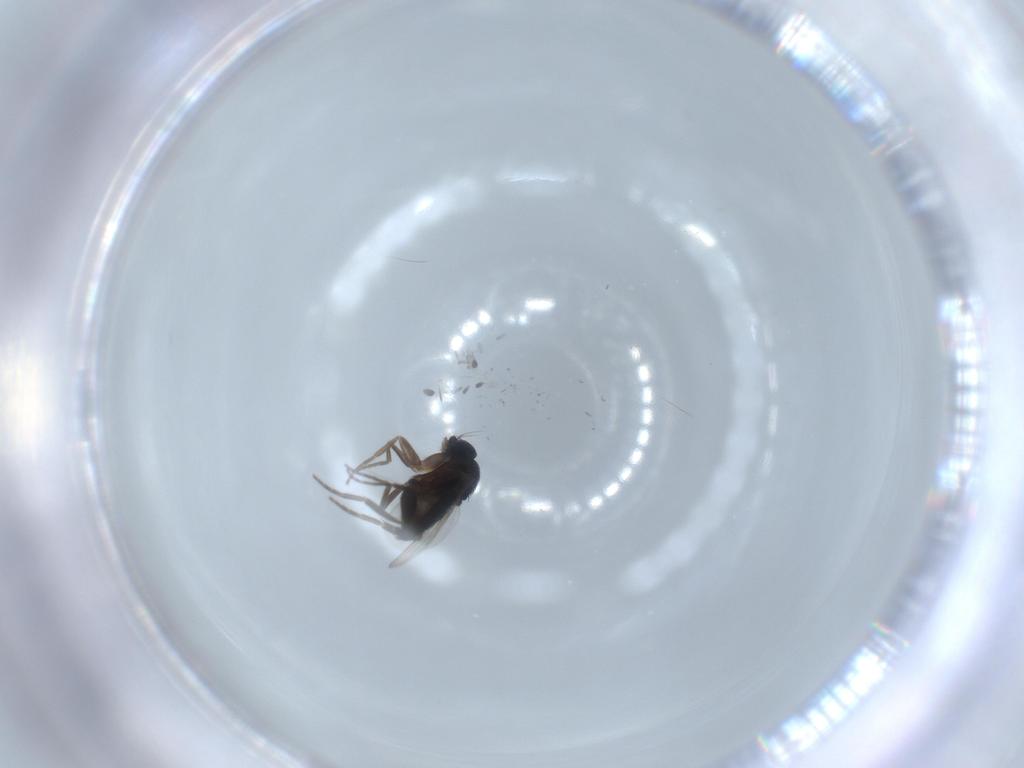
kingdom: Animalia
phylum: Arthropoda
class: Insecta
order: Diptera
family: Phoridae
